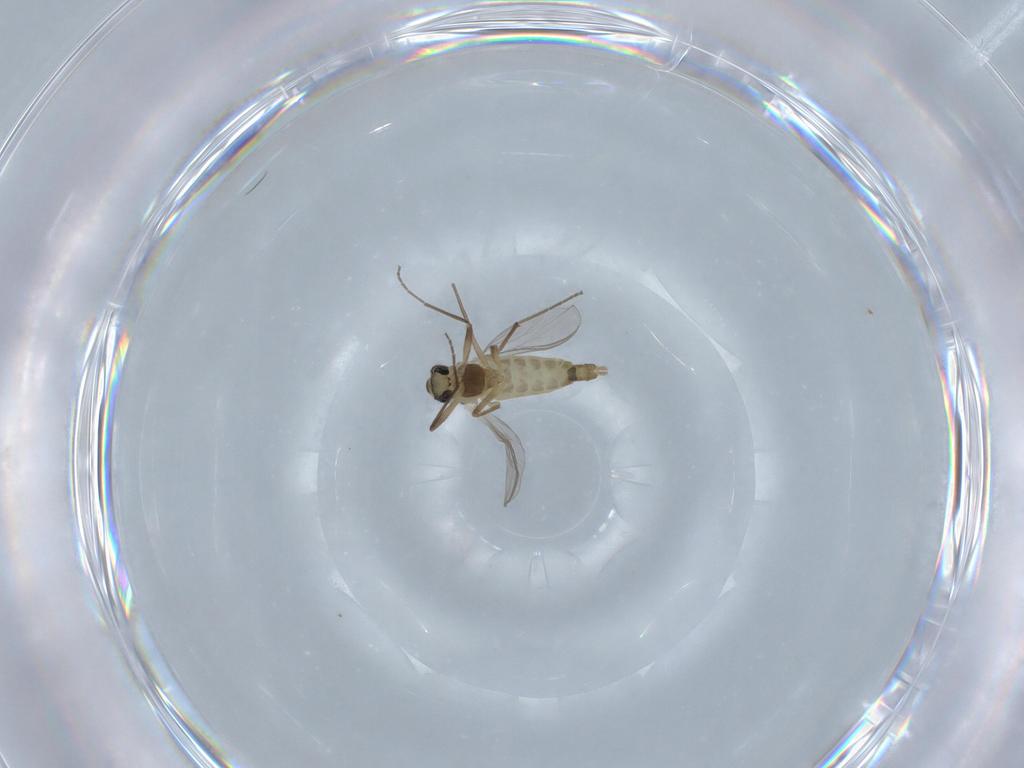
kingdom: Animalia
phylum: Arthropoda
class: Insecta
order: Diptera
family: Chironomidae
